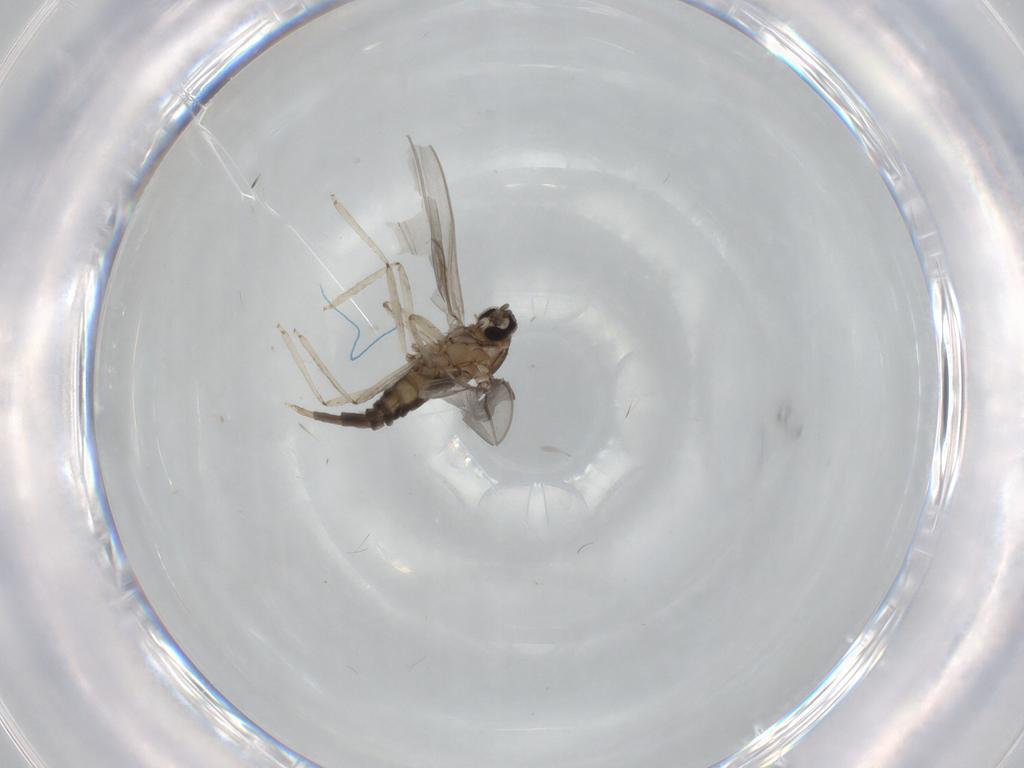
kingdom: Animalia
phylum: Arthropoda
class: Insecta
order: Diptera
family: Cecidomyiidae
